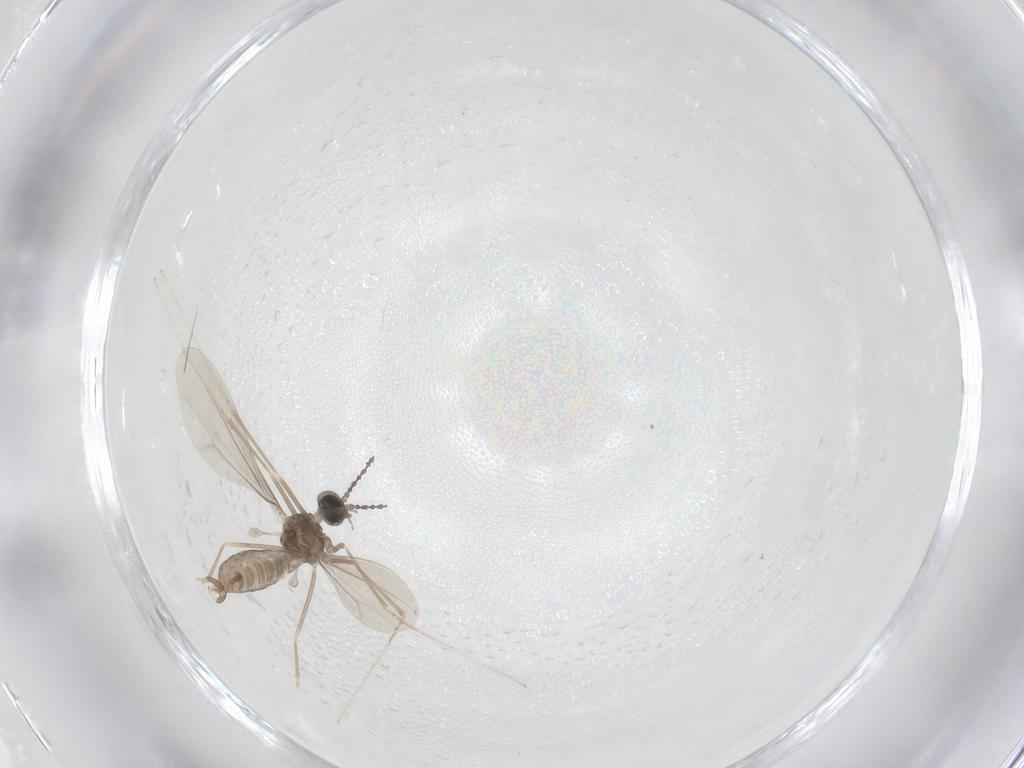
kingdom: Animalia
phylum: Arthropoda
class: Insecta
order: Diptera
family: Cecidomyiidae
